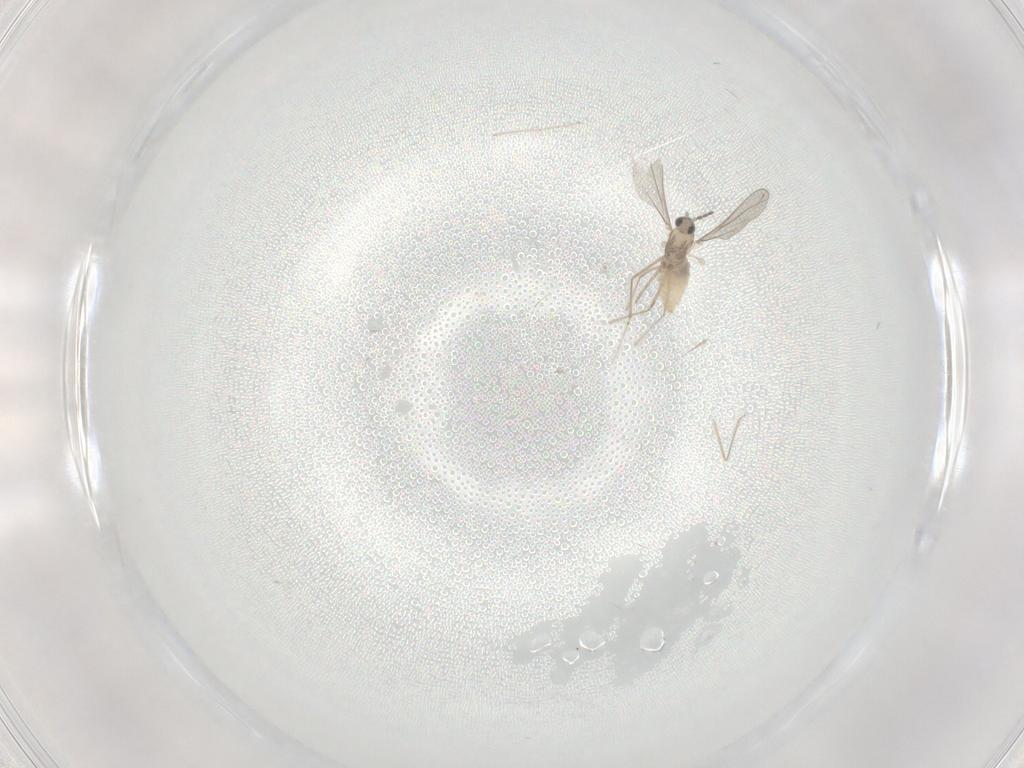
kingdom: Animalia
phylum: Arthropoda
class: Insecta
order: Diptera
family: Cecidomyiidae
